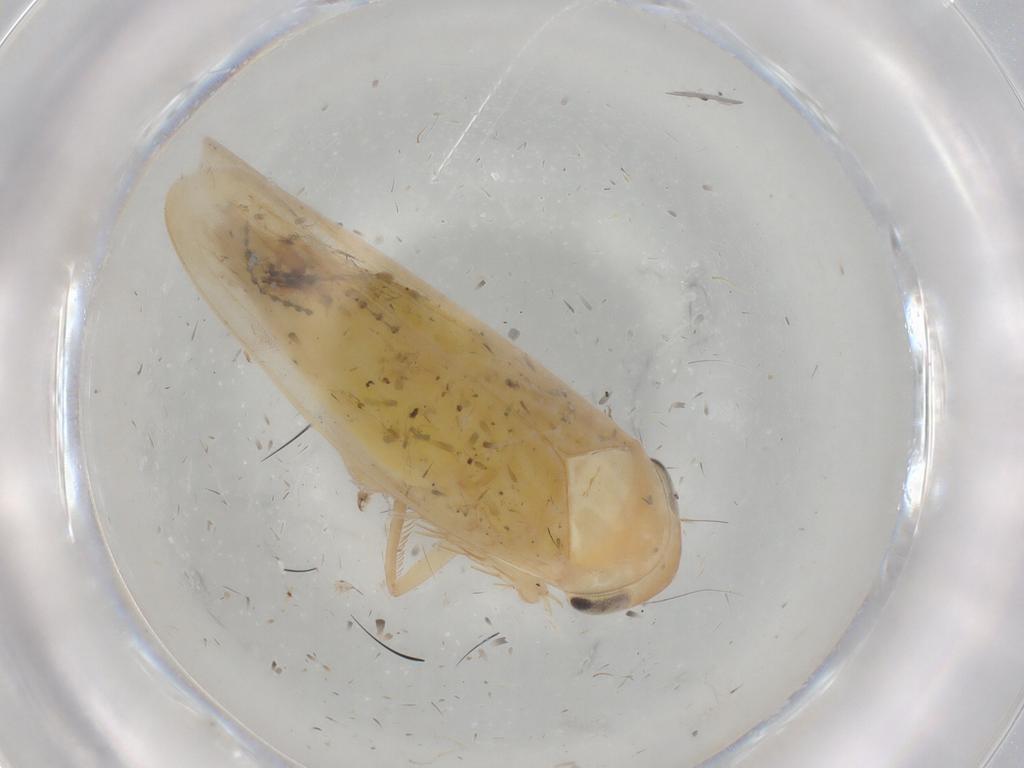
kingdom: Animalia
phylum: Arthropoda
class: Insecta
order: Hemiptera
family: Cicadellidae
